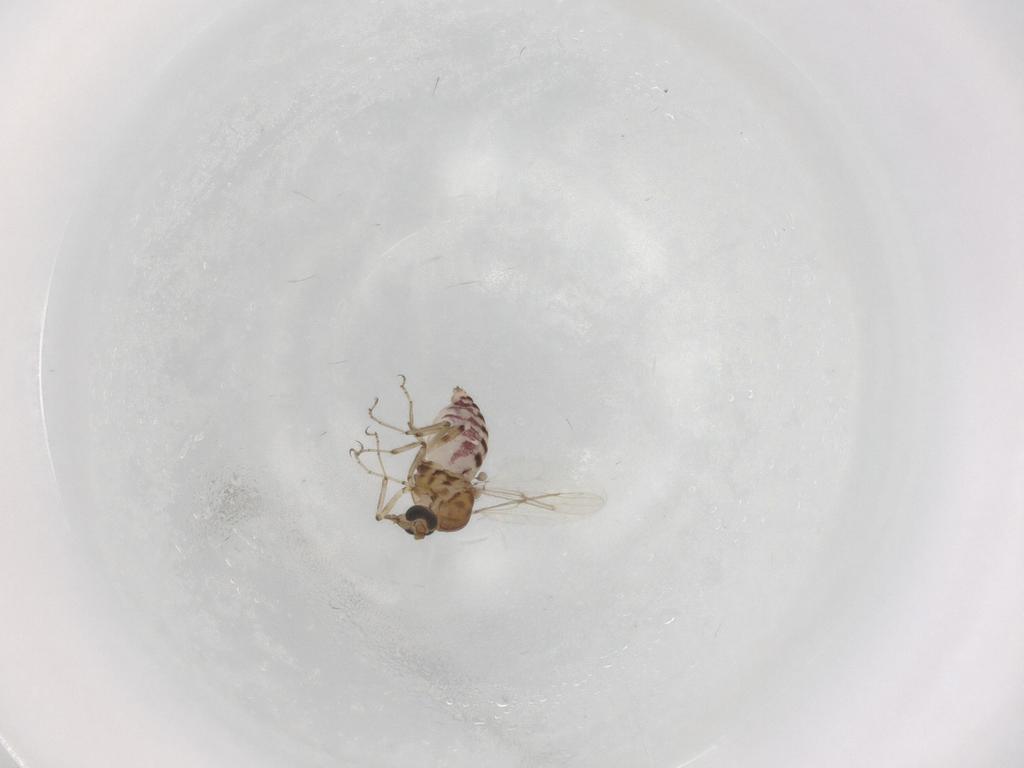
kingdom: Animalia
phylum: Arthropoda
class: Insecta
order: Diptera
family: Ceratopogonidae
